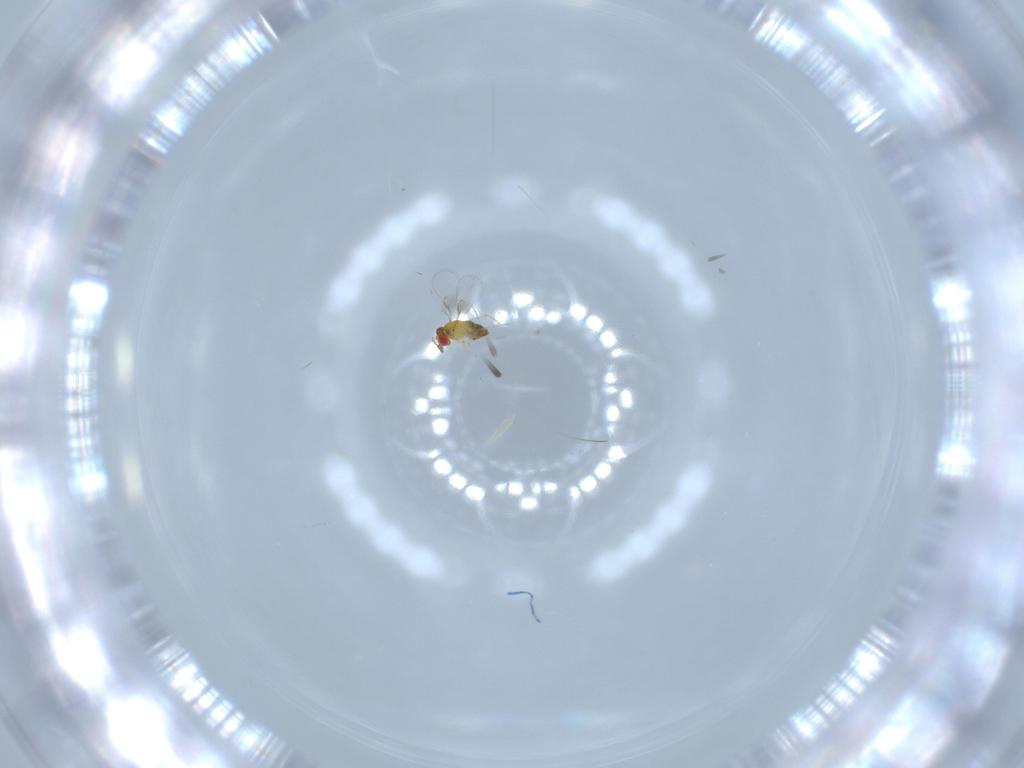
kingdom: Animalia
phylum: Arthropoda
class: Insecta
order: Hymenoptera
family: Trichogrammatidae
